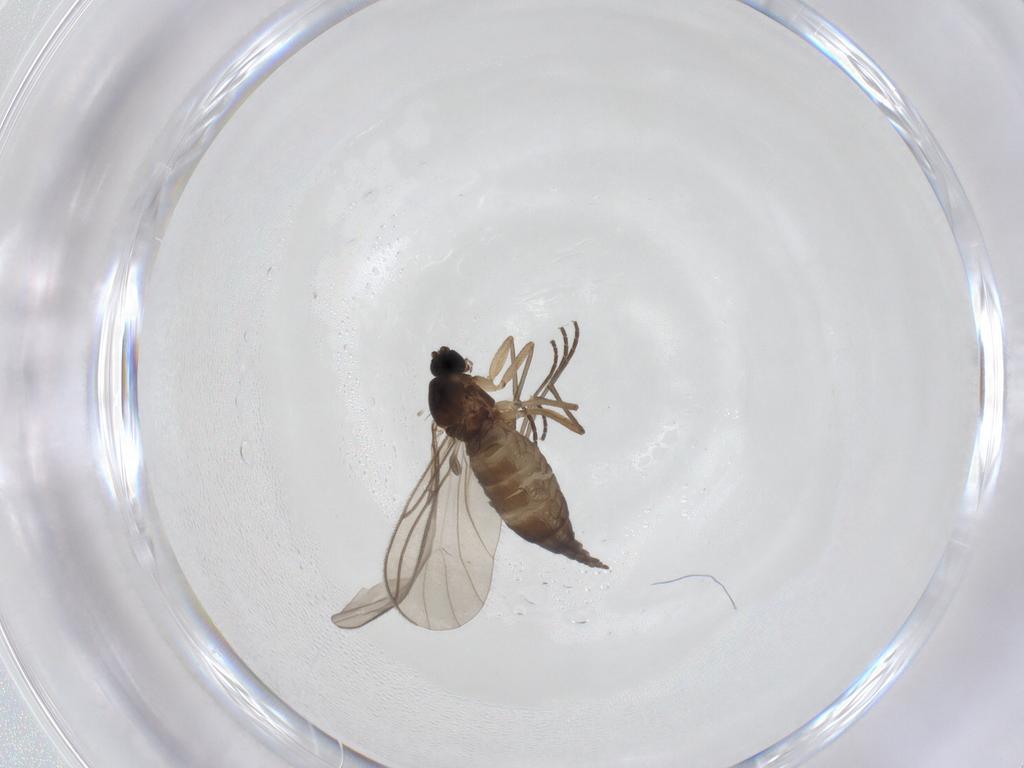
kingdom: Animalia
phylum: Arthropoda
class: Insecta
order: Diptera
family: Sciaridae
